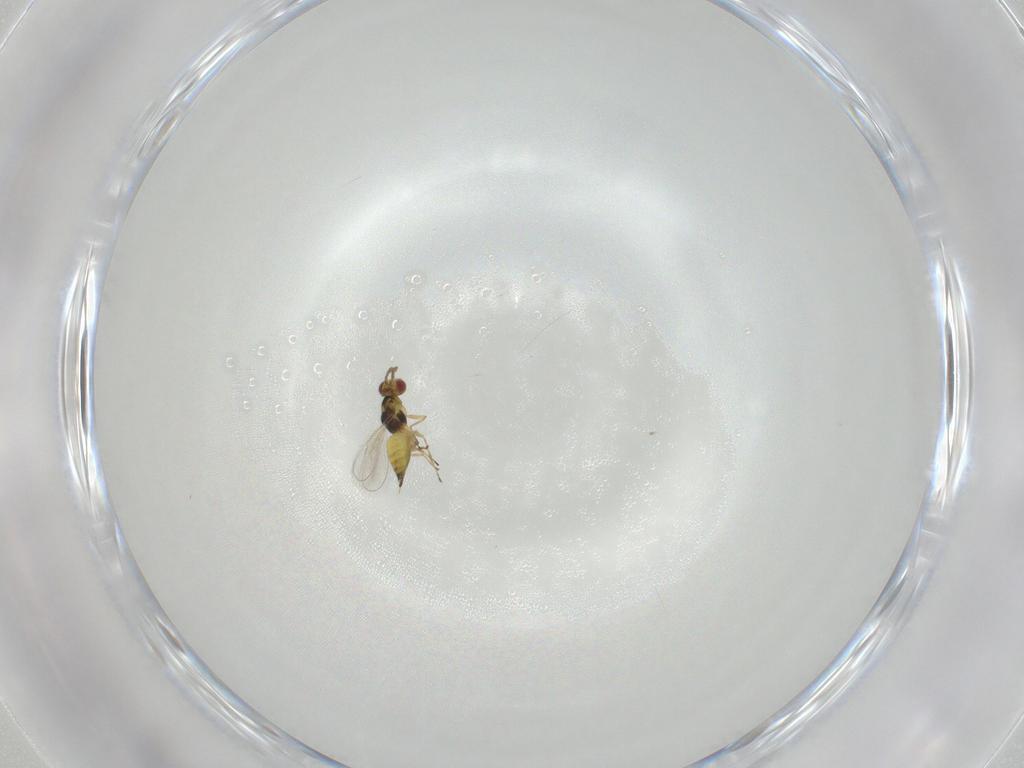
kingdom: Animalia
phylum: Arthropoda
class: Insecta
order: Hymenoptera
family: Eulophidae
